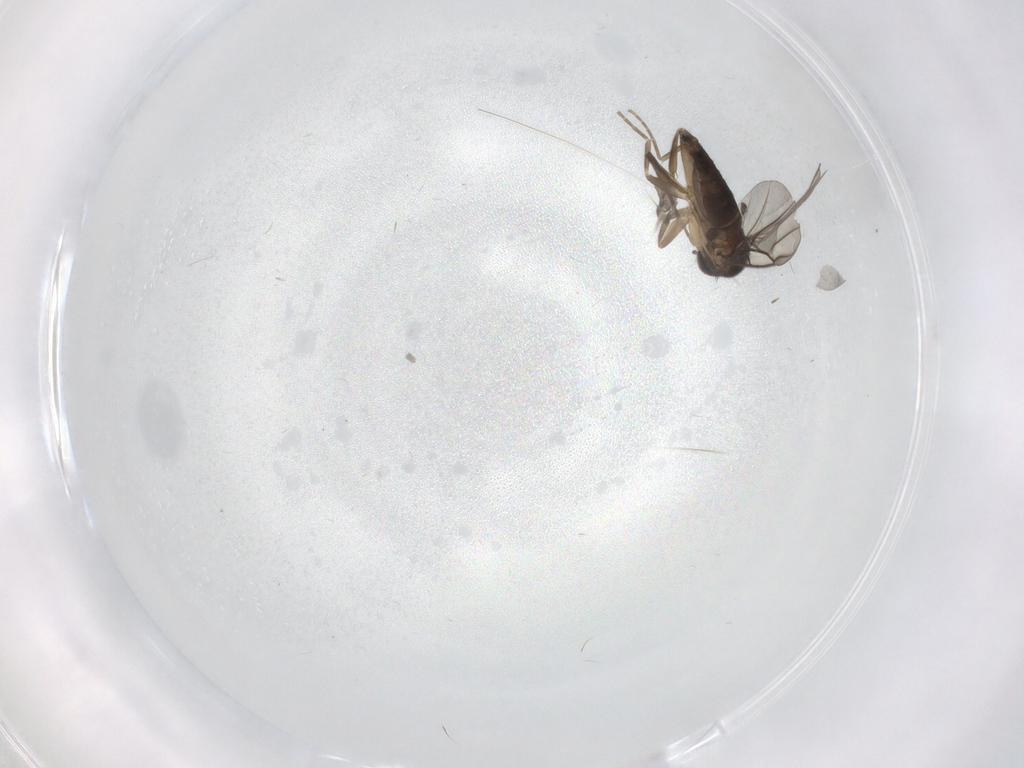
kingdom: Animalia
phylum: Arthropoda
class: Insecta
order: Diptera
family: Phoridae
